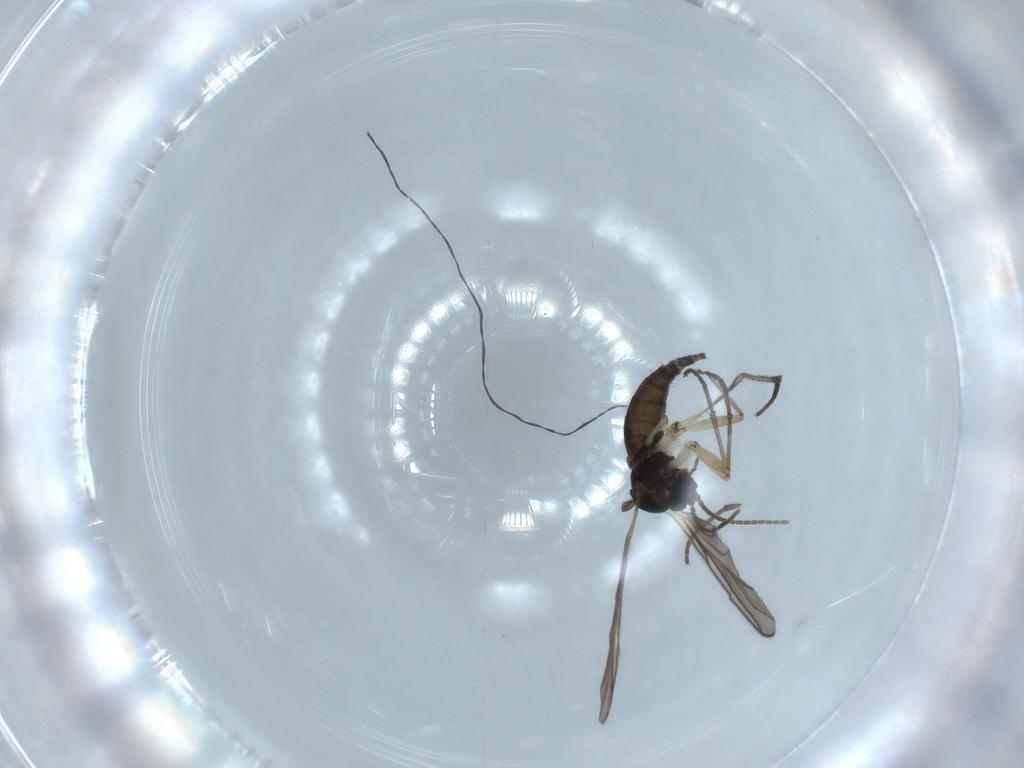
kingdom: Animalia
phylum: Arthropoda
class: Insecta
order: Diptera
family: Sciaridae
